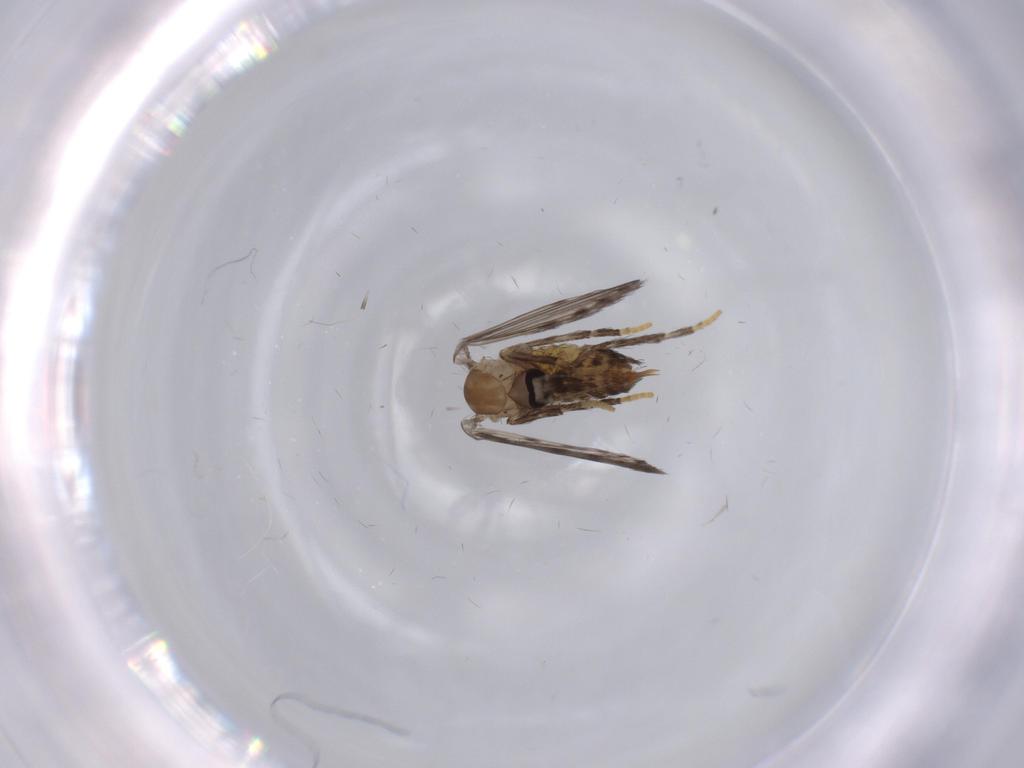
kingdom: Animalia
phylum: Arthropoda
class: Insecta
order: Diptera
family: Psychodidae
